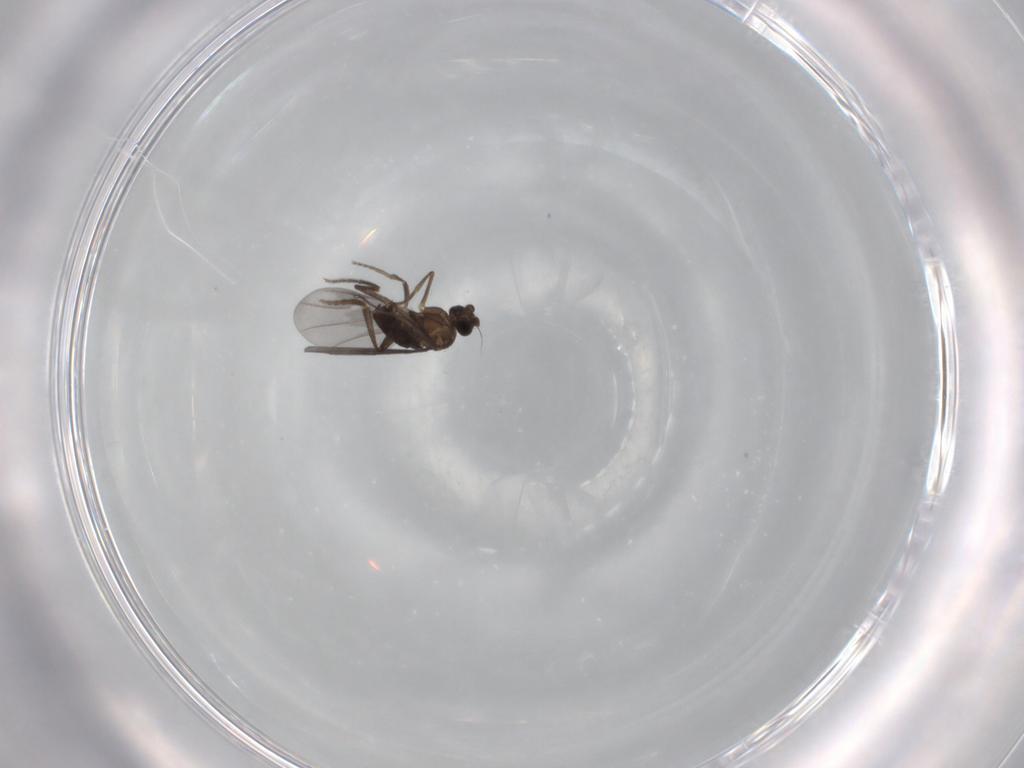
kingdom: Animalia
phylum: Arthropoda
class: Insecta
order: Diptera
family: Phoridae
